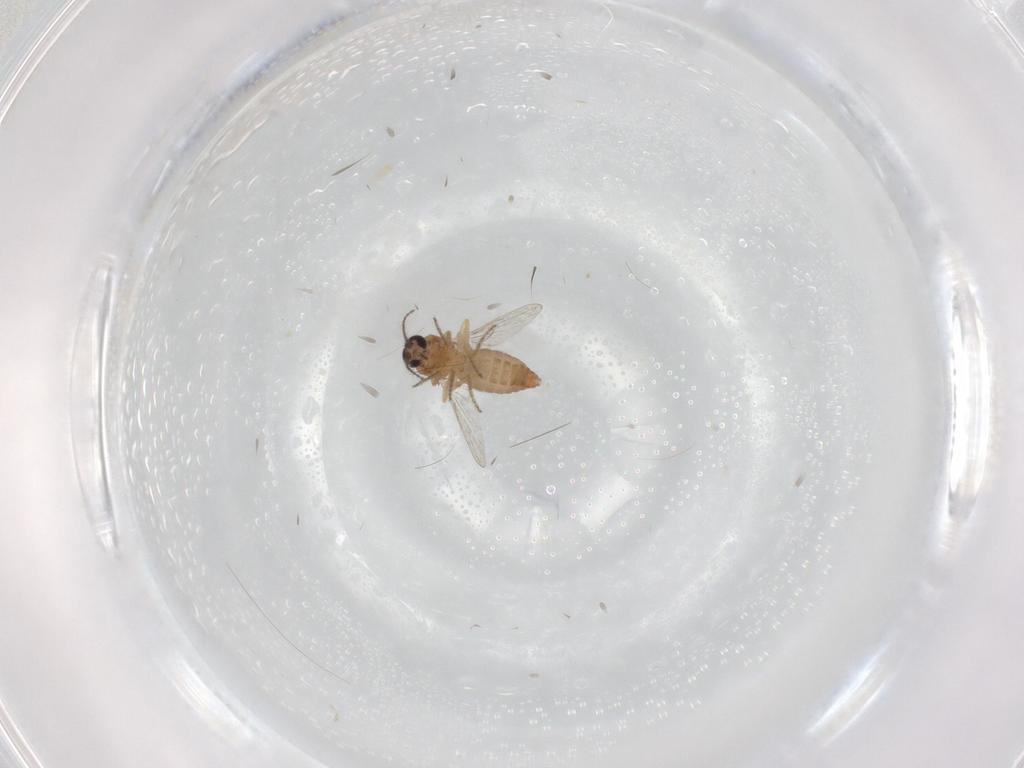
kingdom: Animalia
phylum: Arthropoda
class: Insecta
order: Diptera
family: Ceratopogonidae
